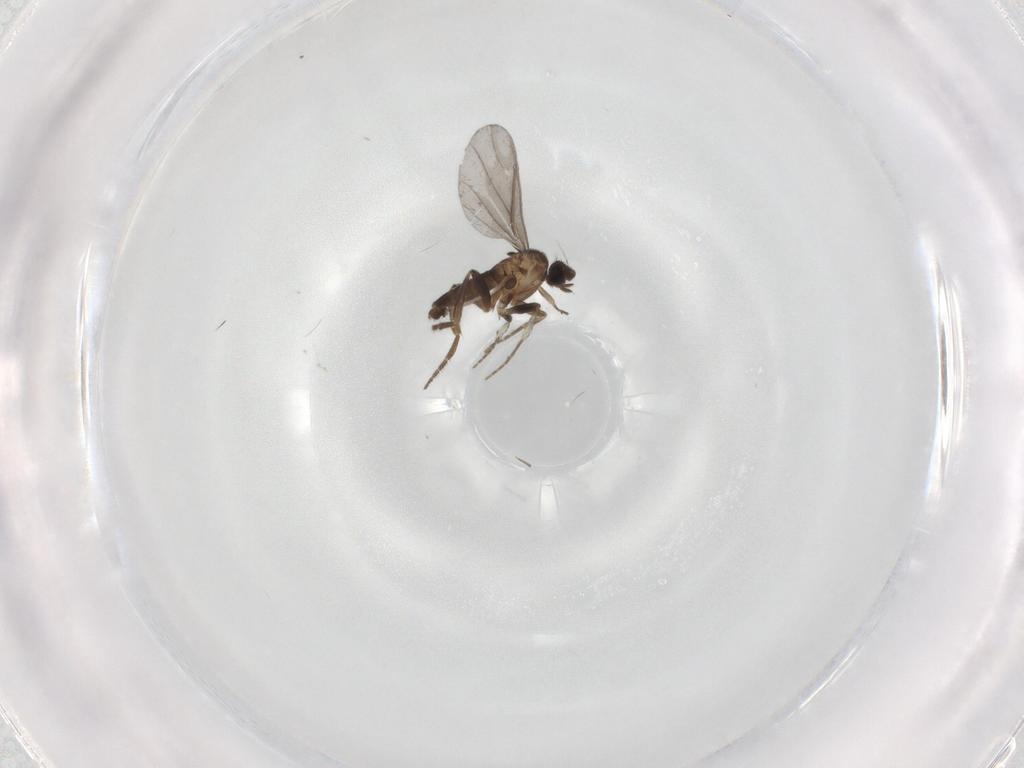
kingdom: Animalia
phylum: Arthropoda
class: Insecta
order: Diptera
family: Phoridae
